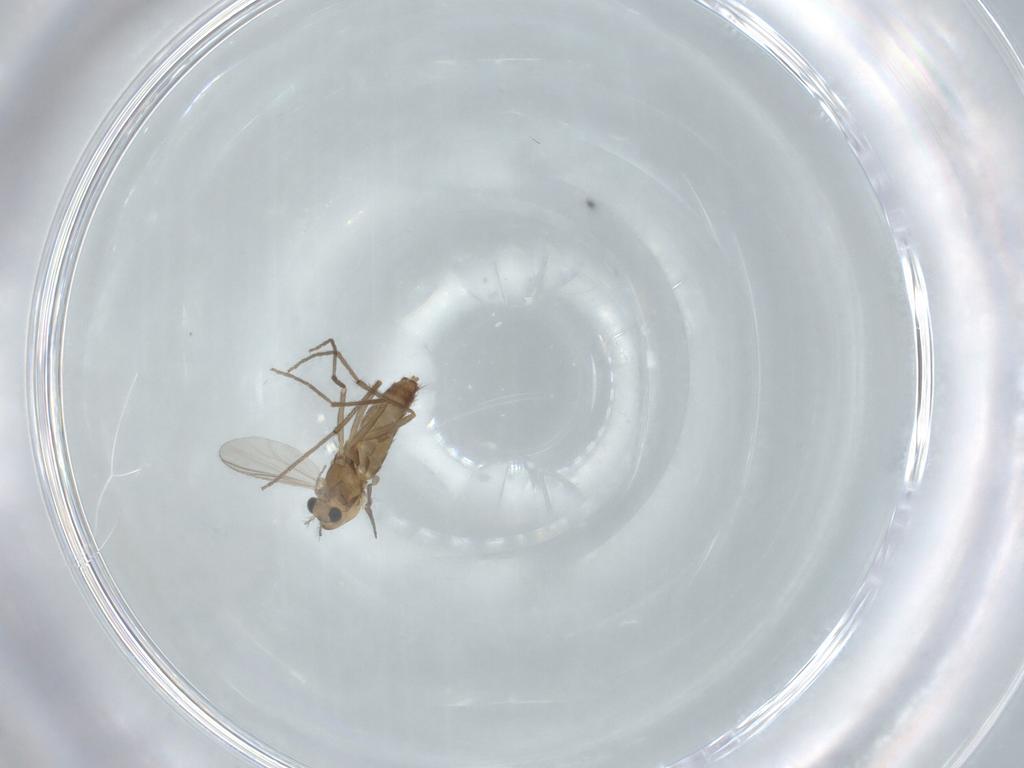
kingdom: Animalia
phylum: Arthropoda
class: Insecta
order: Diptera
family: Chironomidae
